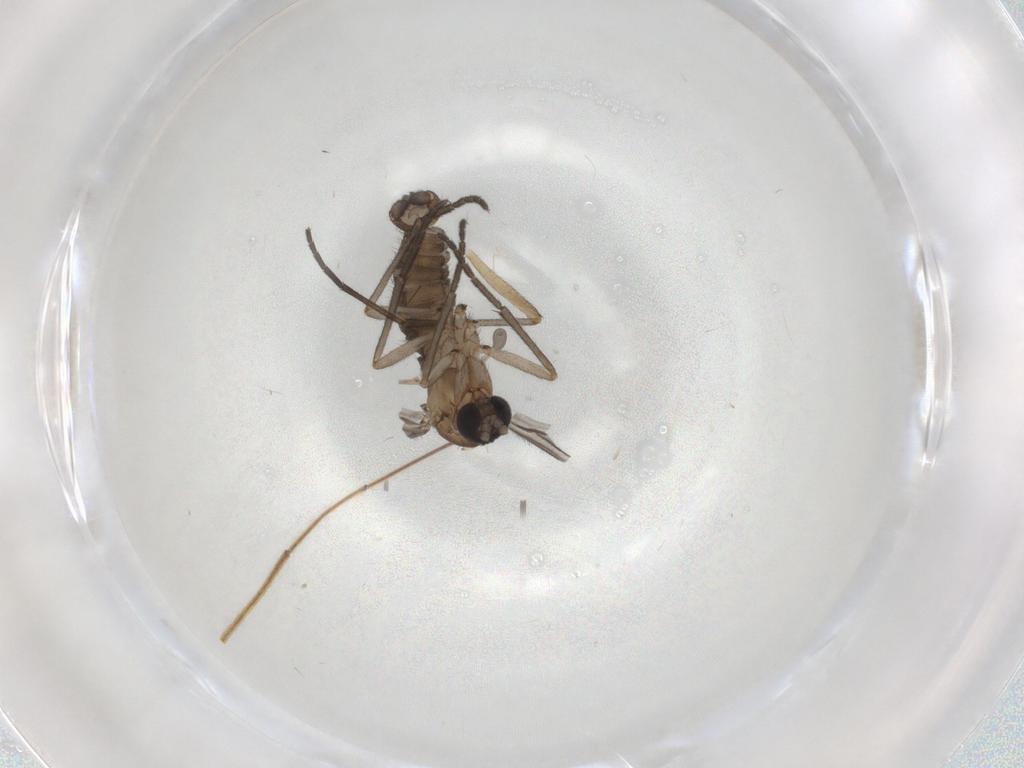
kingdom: Animalia
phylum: Arthropoda
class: Insecta
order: Diptera
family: Sciaridae
